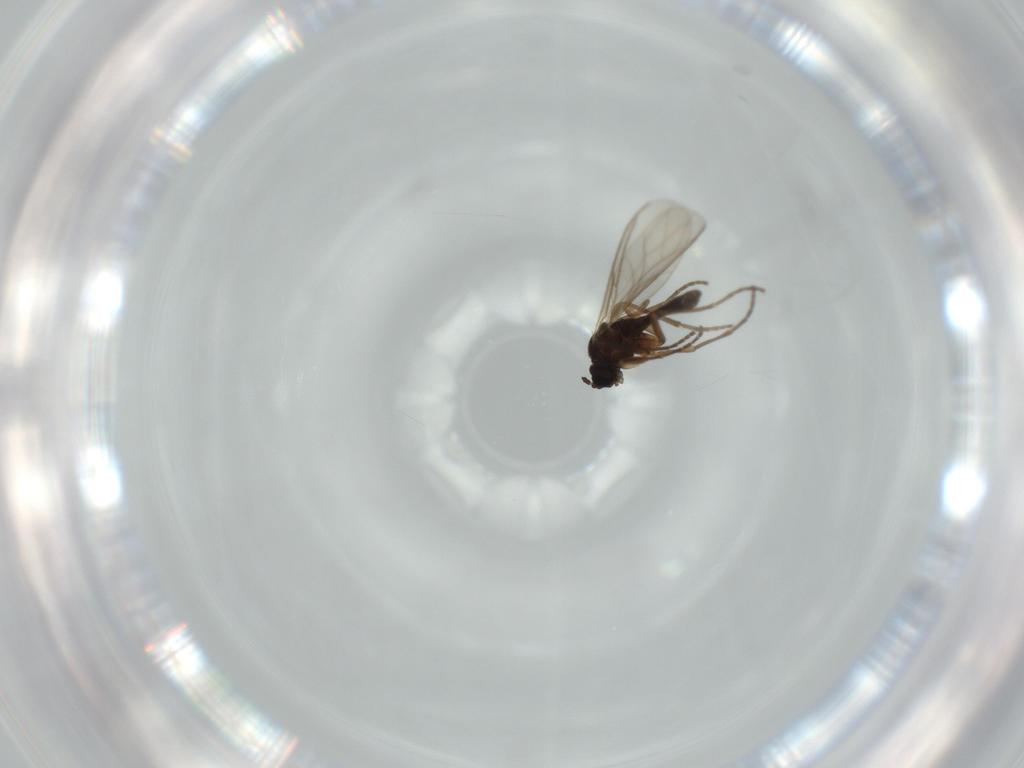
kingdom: Animalia
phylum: Arthropoda
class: Insecta
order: Diptera
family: Sciaridae
